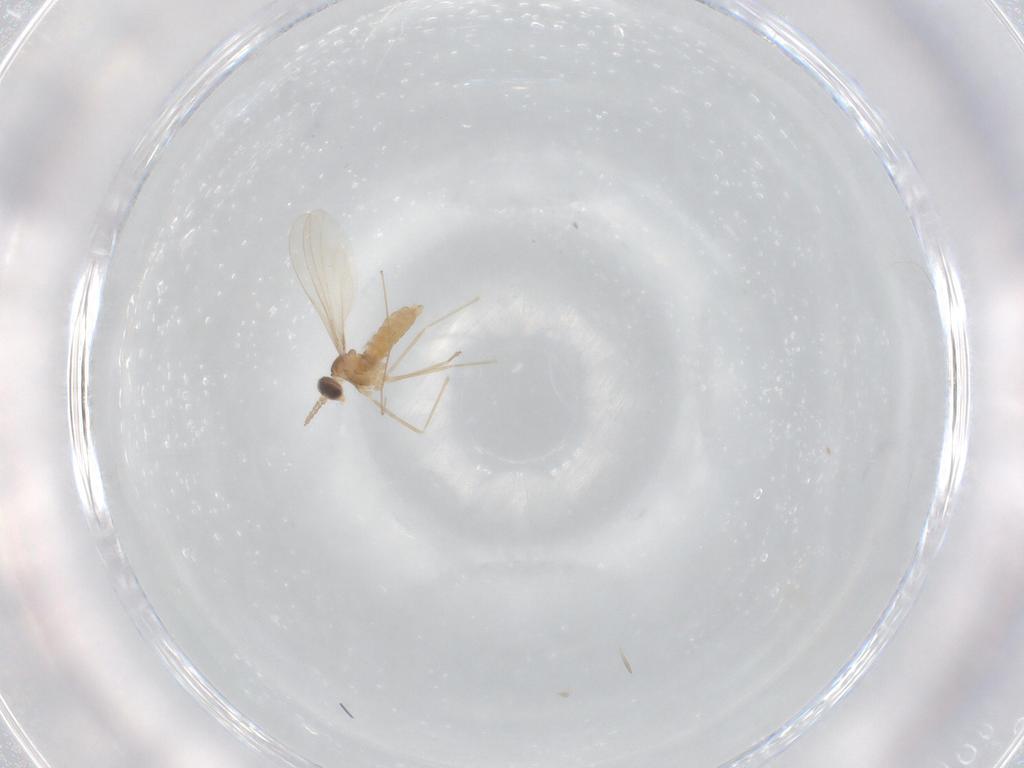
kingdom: Animalia
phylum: Arthropoda
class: Insecta
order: Diptera
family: Cecidomyiidae
